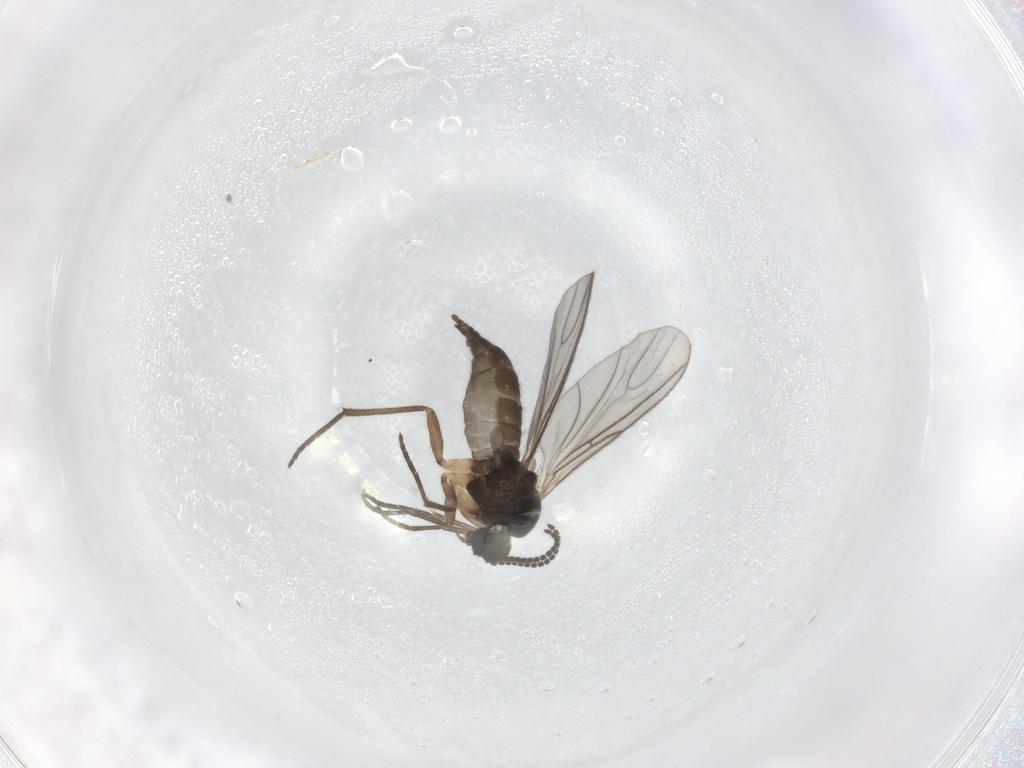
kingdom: Animalia
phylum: Arthropoda
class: Insecta
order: Diptera
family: Sciaridae
